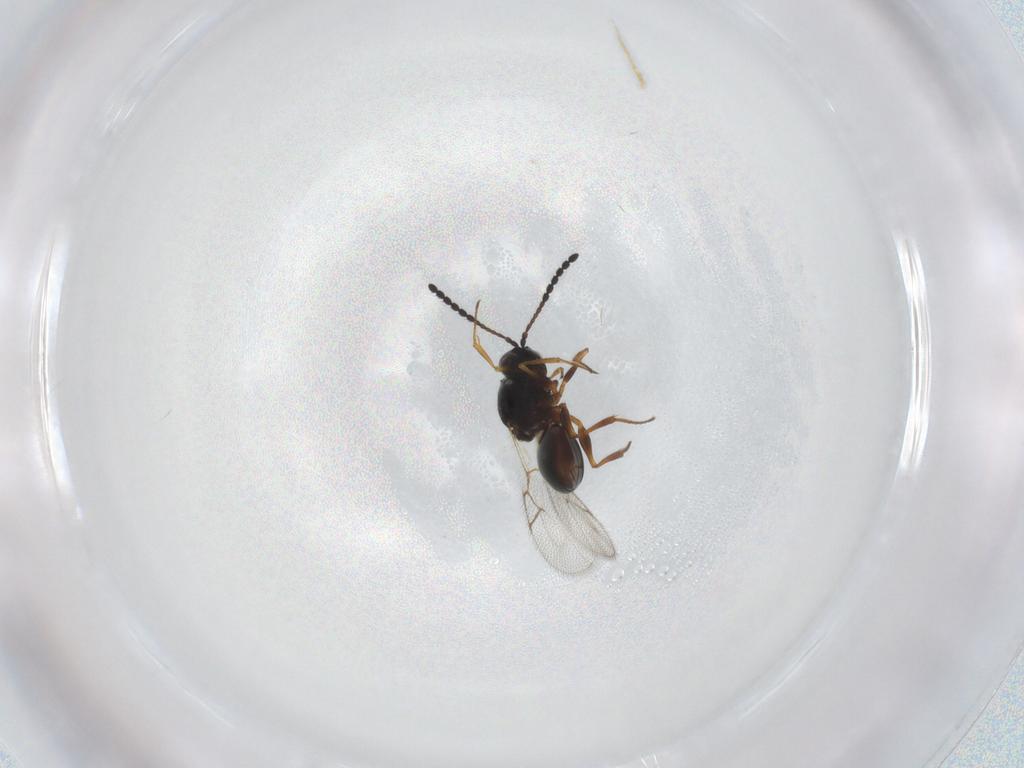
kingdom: Animalia
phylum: Arthropoda
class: Insecta
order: Hymenoptera
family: Figitidae
